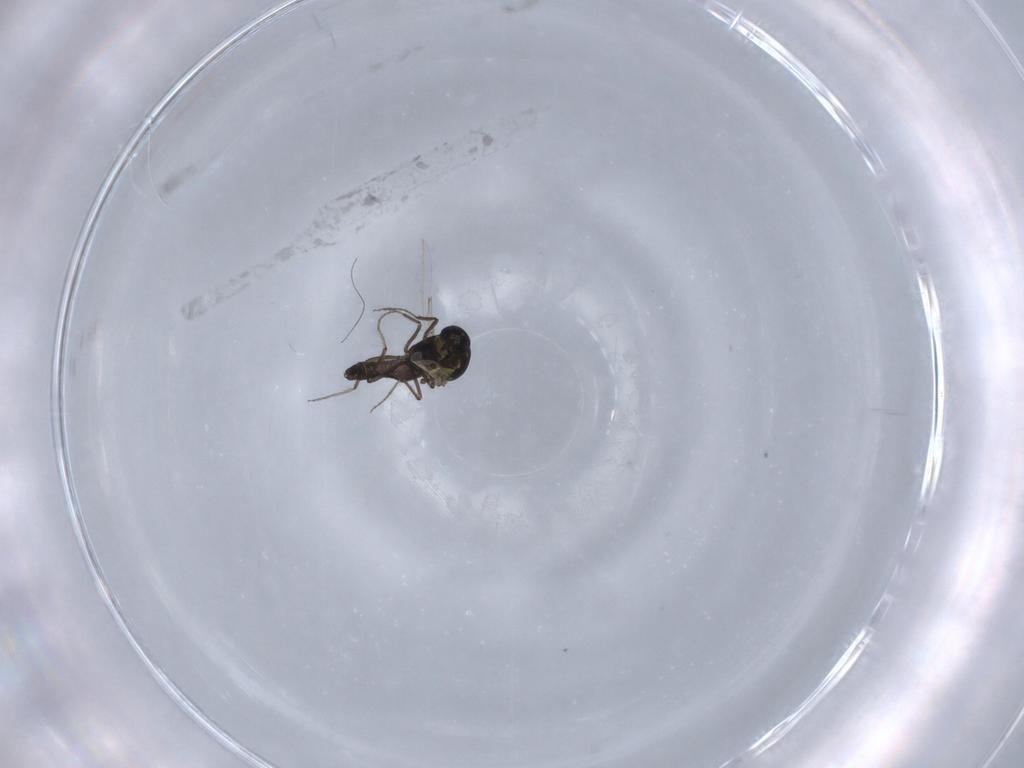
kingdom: Animalia
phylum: Arthropoda
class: Insecta
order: Diptera
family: Ceratopogonidae
